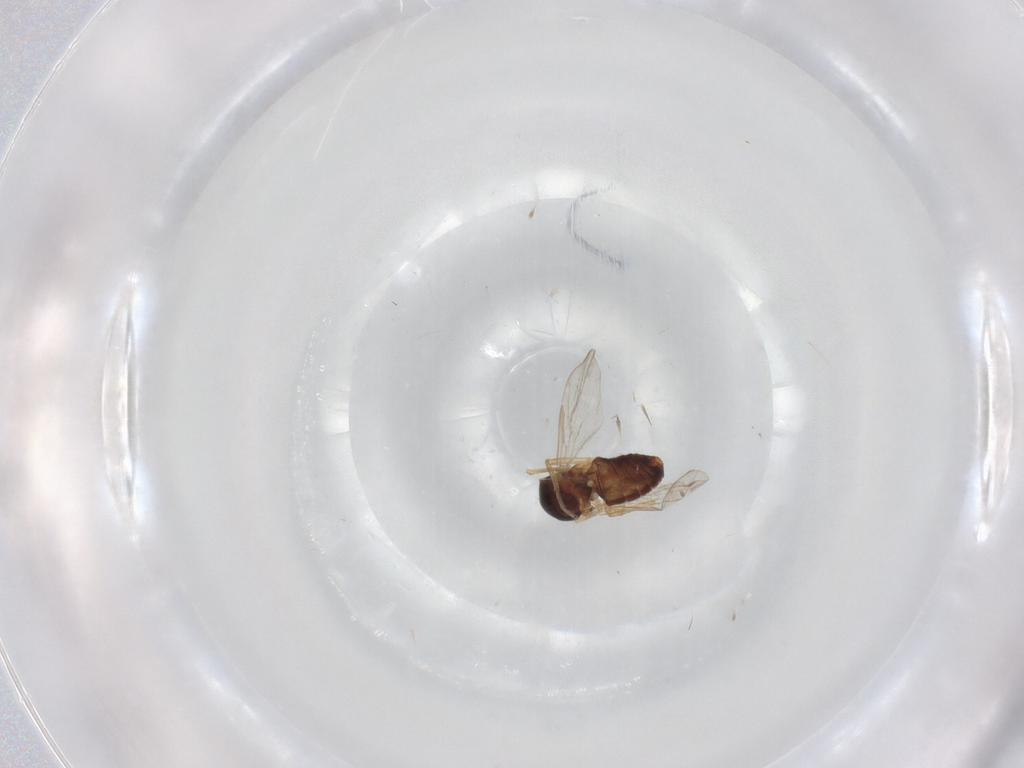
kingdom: Animalia
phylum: Arthropoda
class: Insecta
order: Diptera
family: Ceratopogonidae
